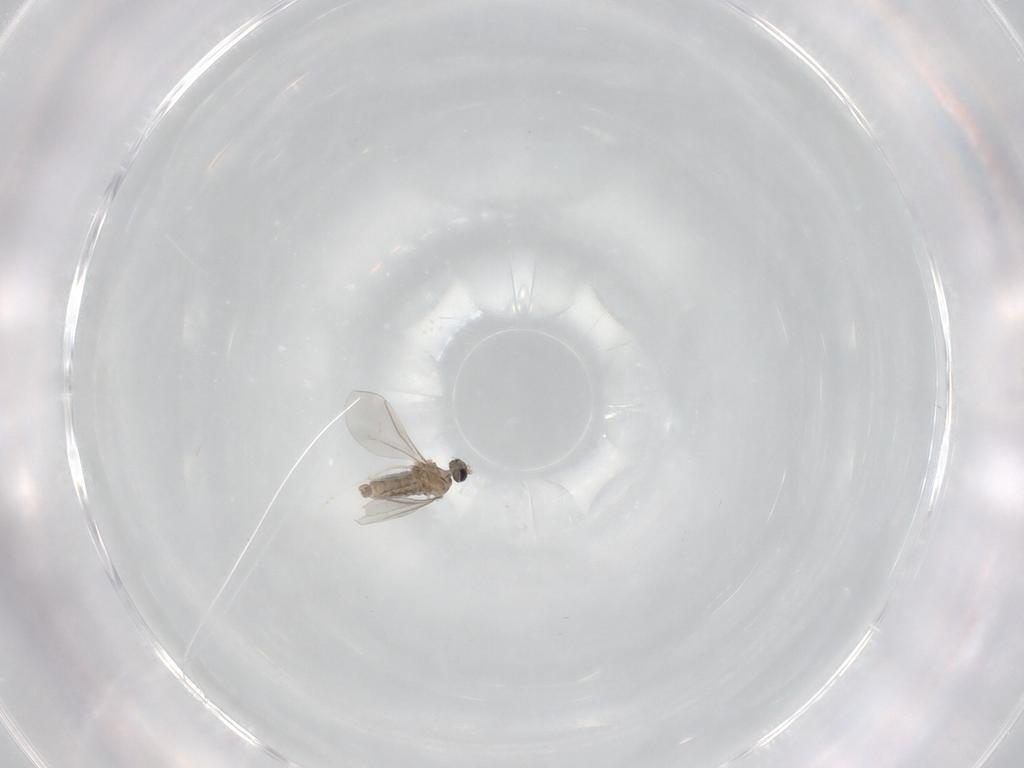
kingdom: Animalia
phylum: Arthropoda
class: Insecta
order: Diptera
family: Cecidomyiidae
